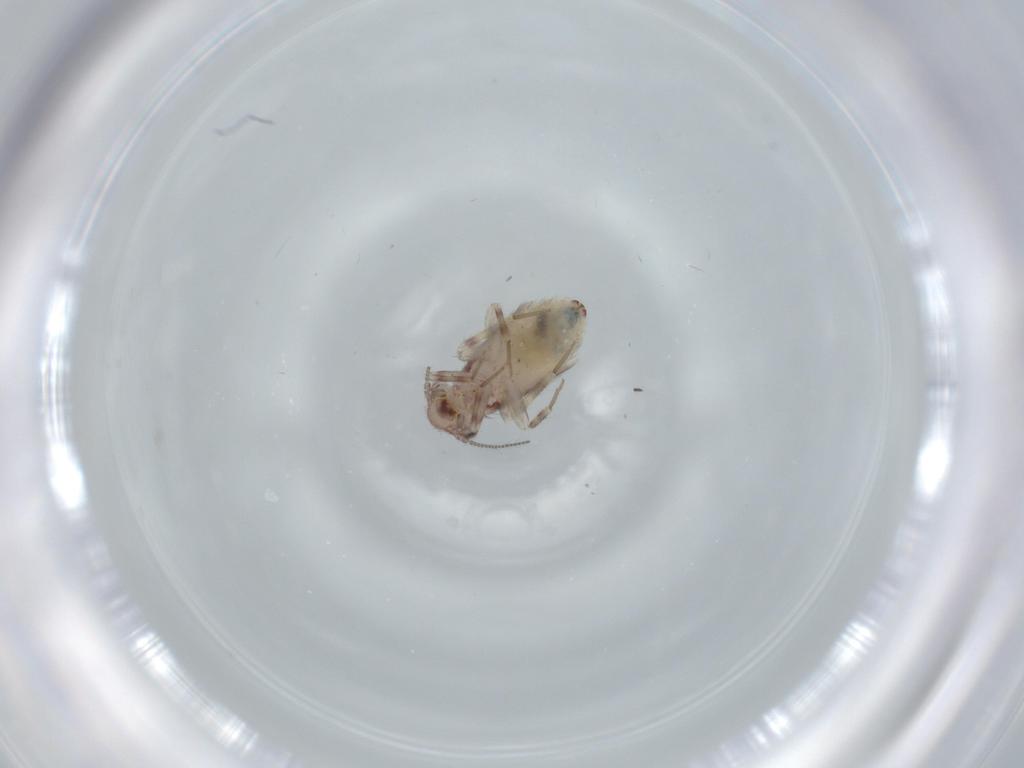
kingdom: Animalia
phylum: Arthropoda
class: Insecta
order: Psocodea
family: Lepidopsocidae
